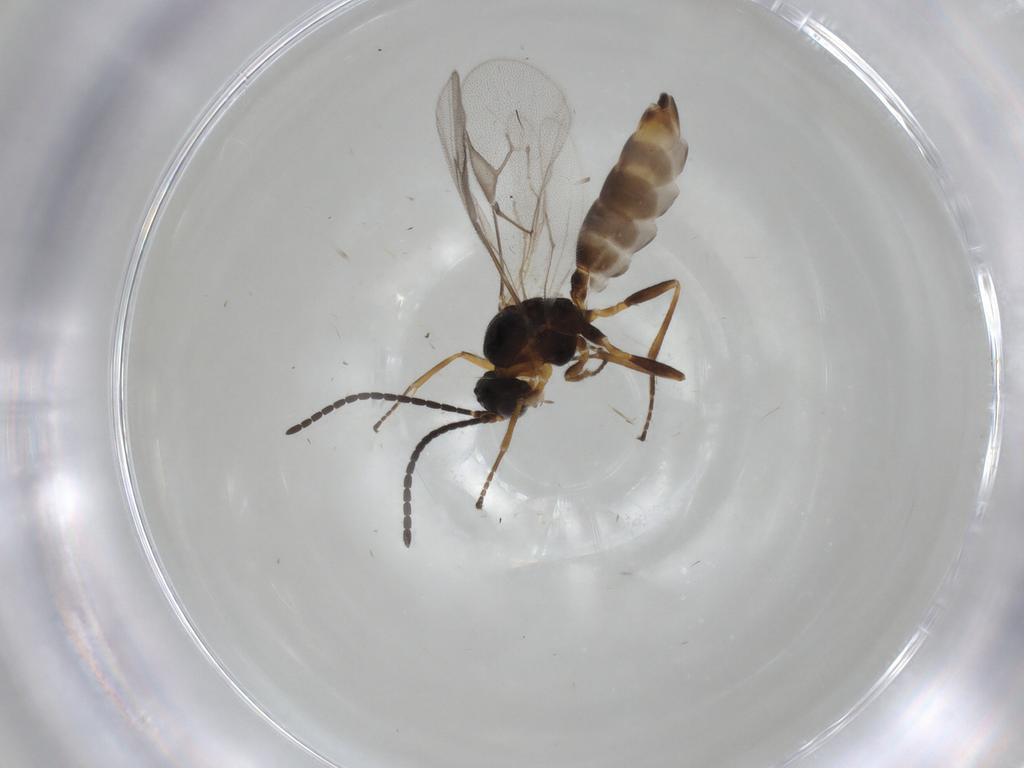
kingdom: Animalia
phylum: Arthropoda
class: Insecta
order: Hymenoptera
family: Braconidae
